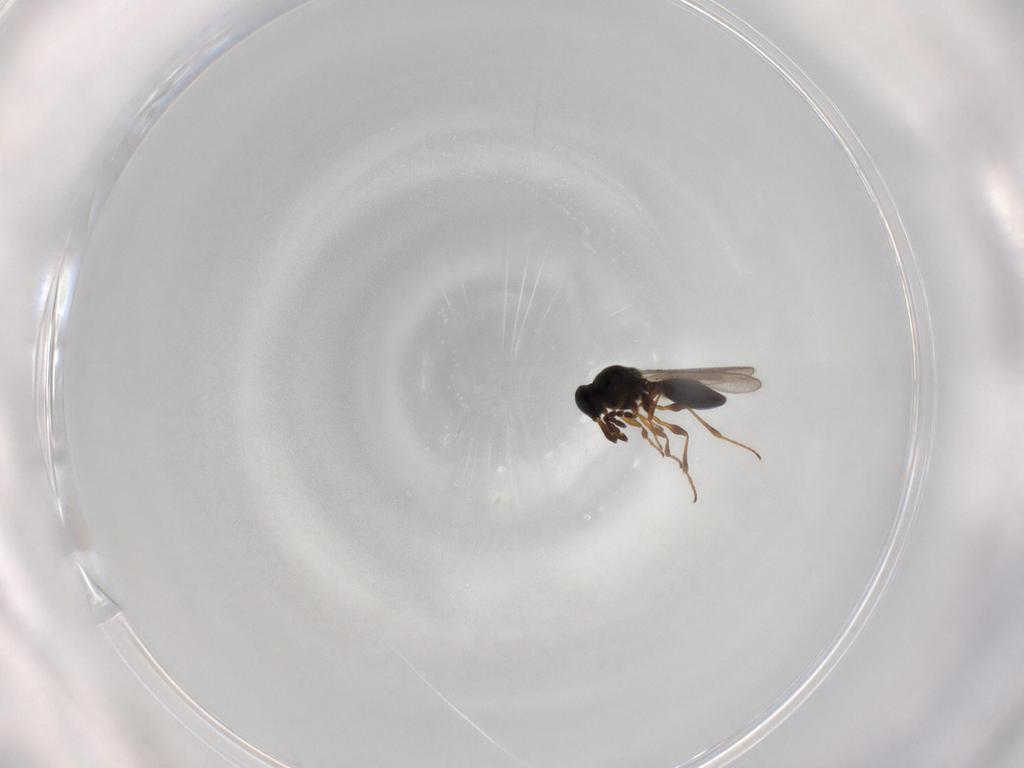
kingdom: Animalia
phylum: Arthropoda
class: Insecta
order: Hymenoptera
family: Platygastridae
